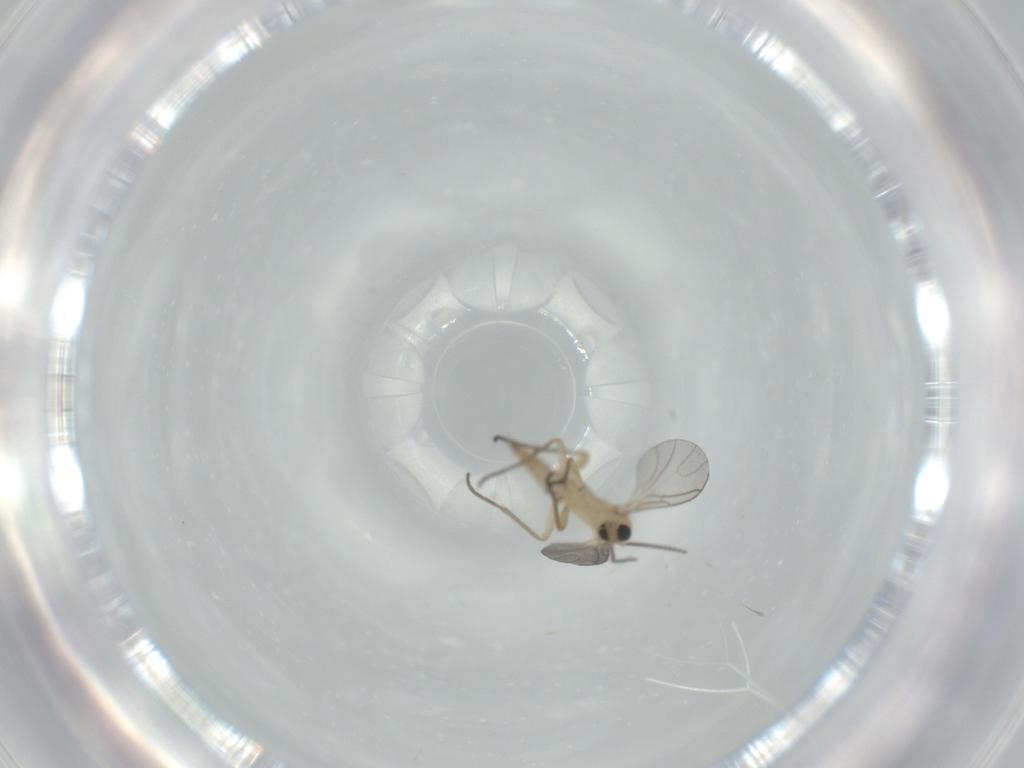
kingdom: Animalia
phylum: Arthropoda
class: Insecta
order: Diptera
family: Sciaridae
